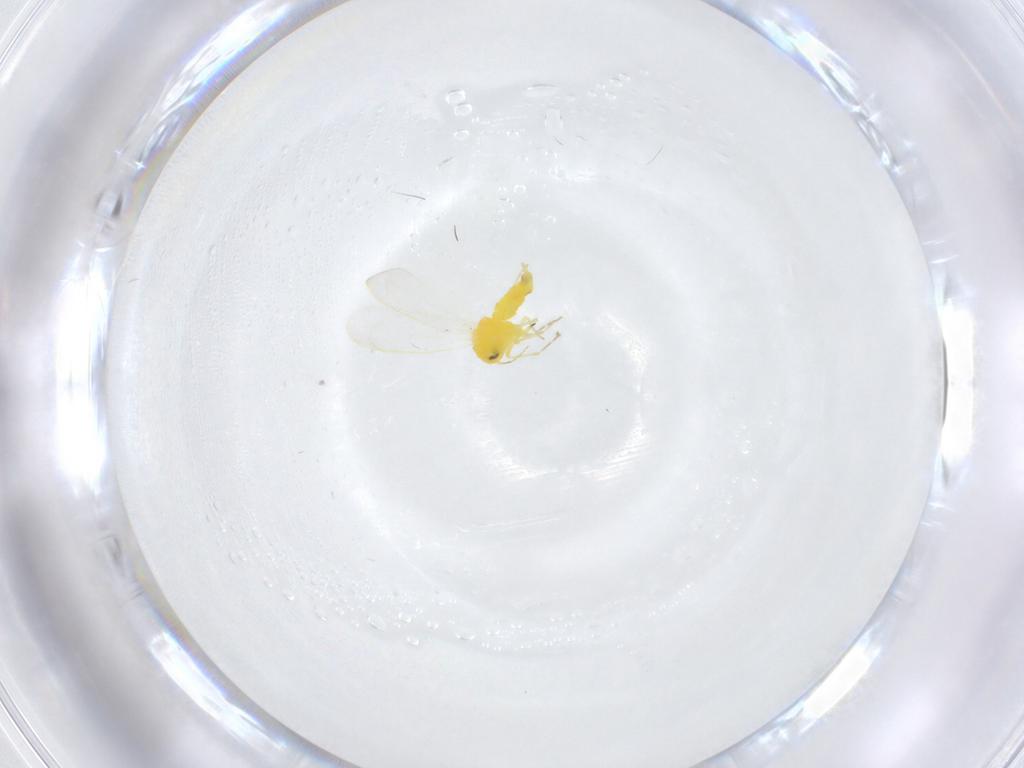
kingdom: Animalia
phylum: Arthropoda
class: Insecta
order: Hemiptera
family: Aleyrodidae
